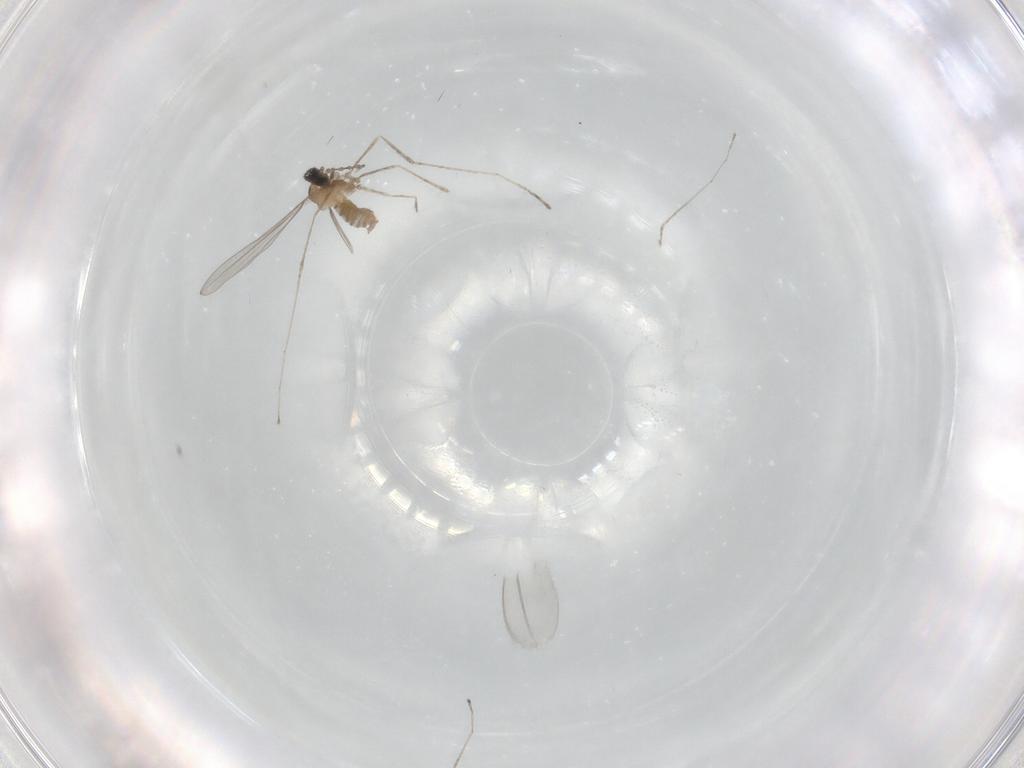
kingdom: Animalia
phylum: Arthropoda
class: Insecta
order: Diptera
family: Cecidomyiidae
